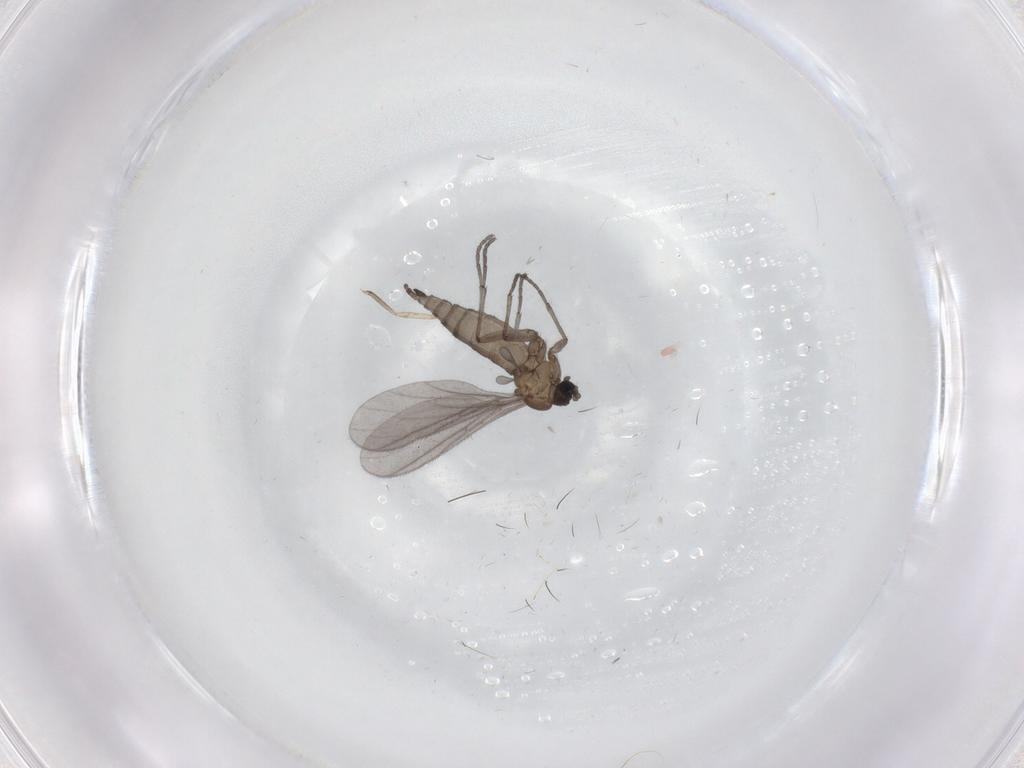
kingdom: Animalia
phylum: Arthropoda
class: Insecta
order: Diptera
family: Sciaridae
